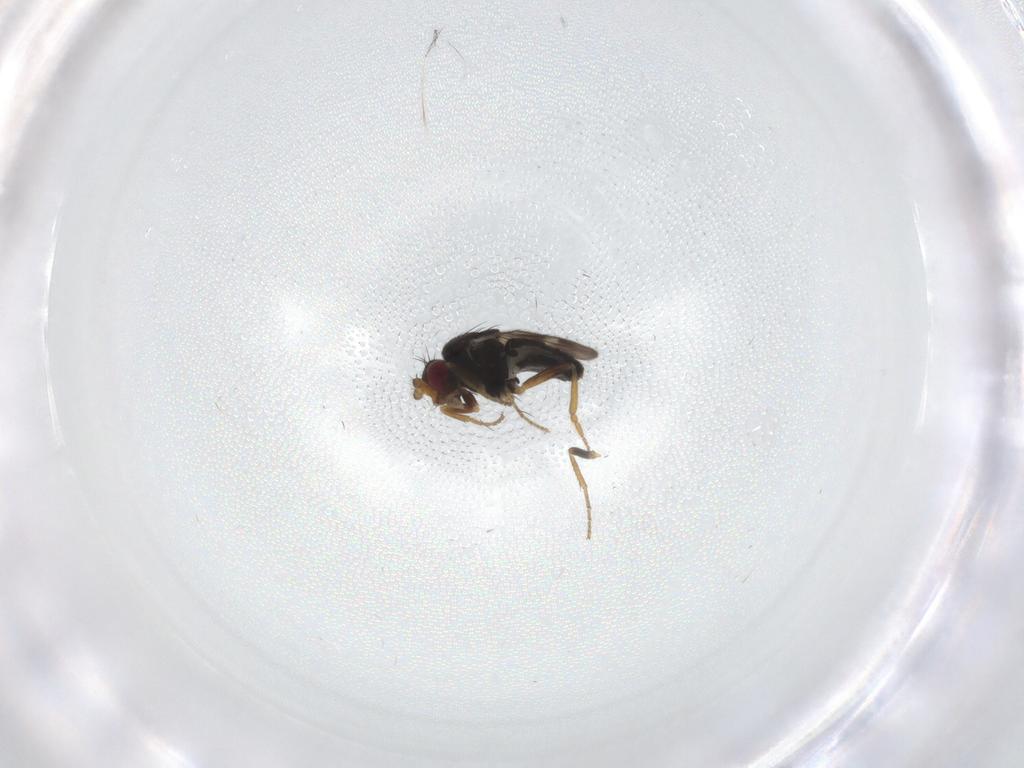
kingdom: Animalia
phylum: Arthropoda
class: Insecta
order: Diptera
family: Sphaeroceridae
